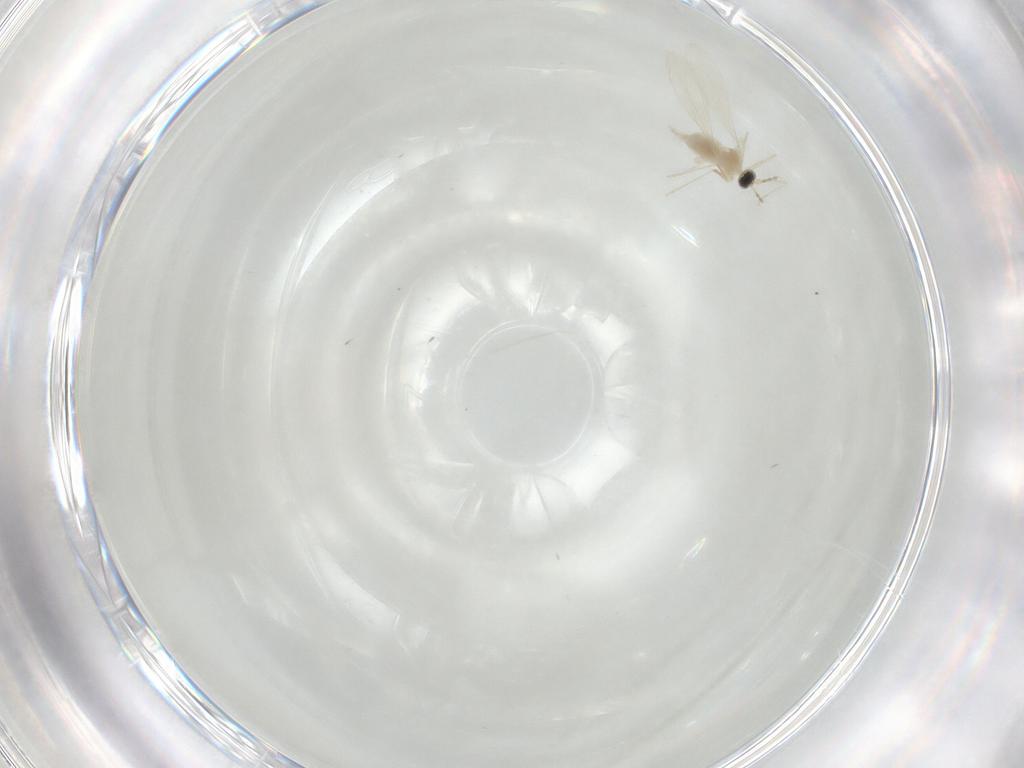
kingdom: Animalia
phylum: Arthropoda
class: Insecta
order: Diptera
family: Cecidomyiidae
